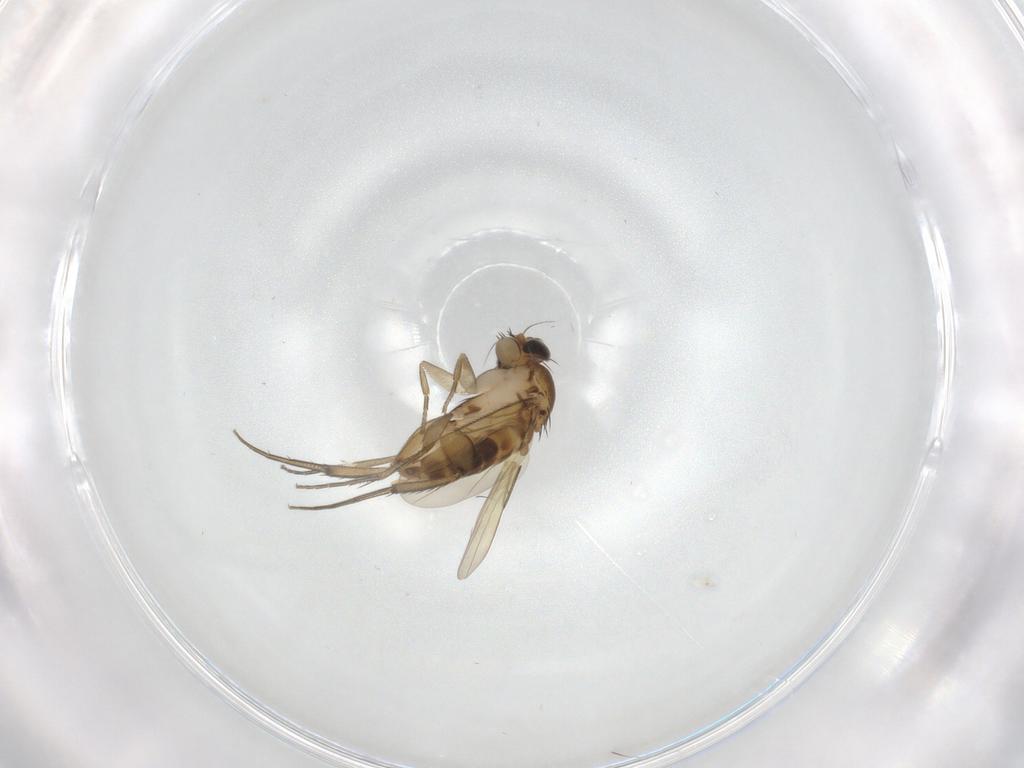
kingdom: Animalia
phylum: Arthropoda
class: Insecta
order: Diptera
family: Phoridae
